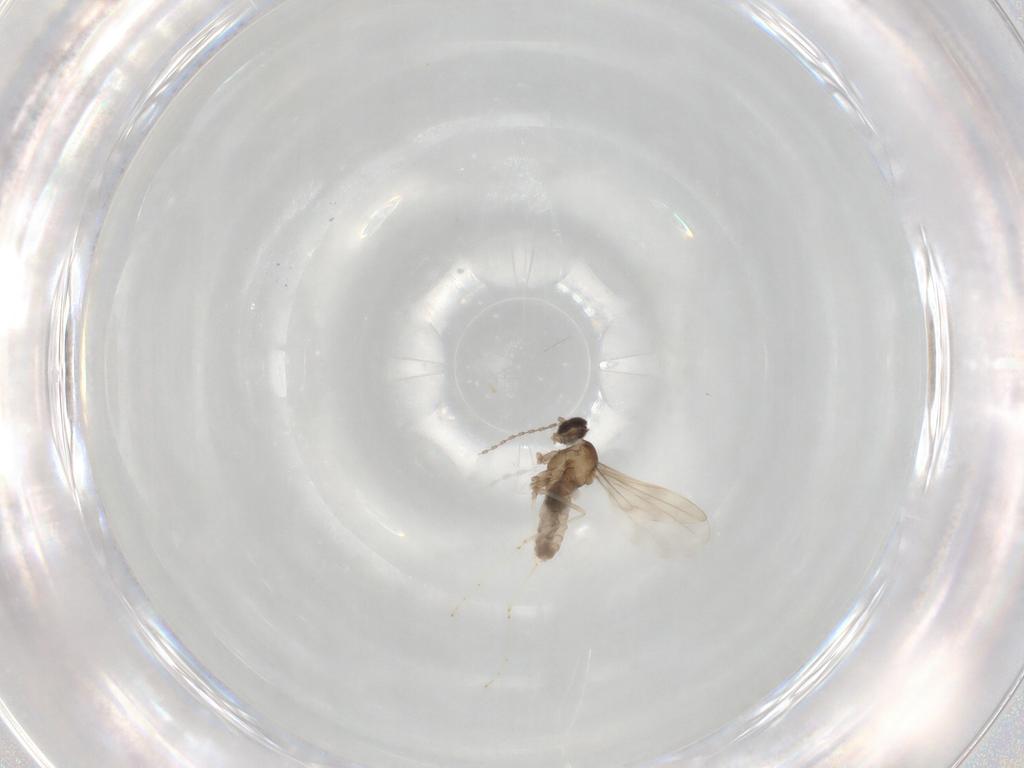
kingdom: Animalia
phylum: Arthropoda
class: Insecta
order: Diptera
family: Cecidomyiidae
